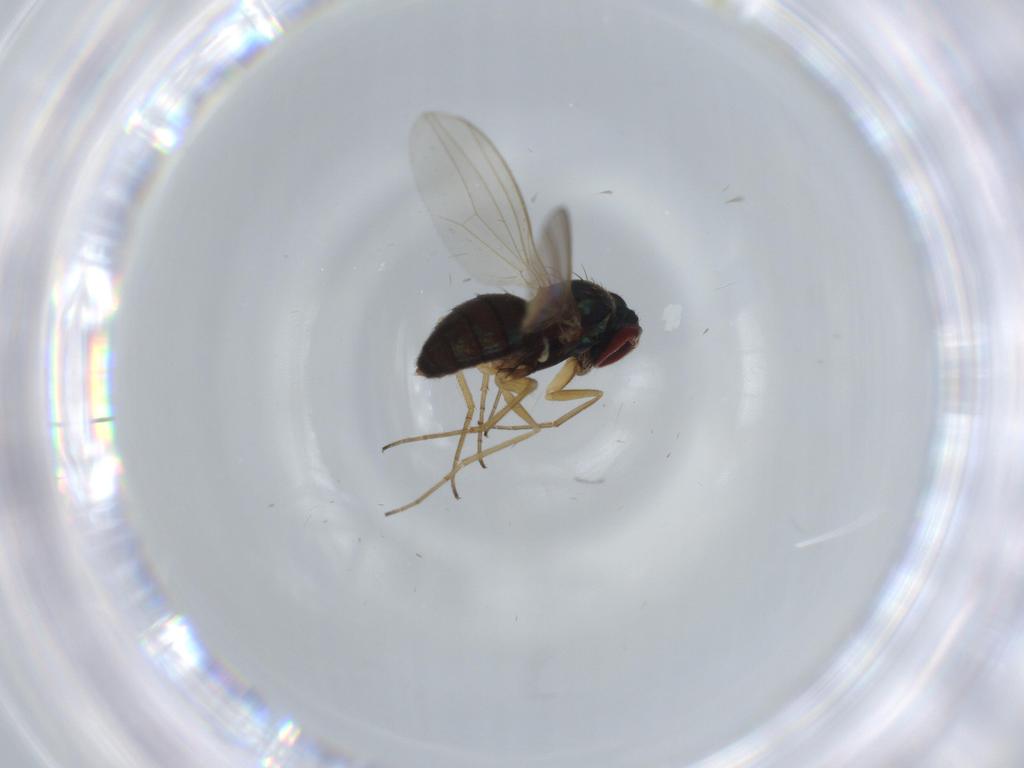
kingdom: Animalia
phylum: Arthropoda
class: Insecta
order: Diptera
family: Dolichopodidae
